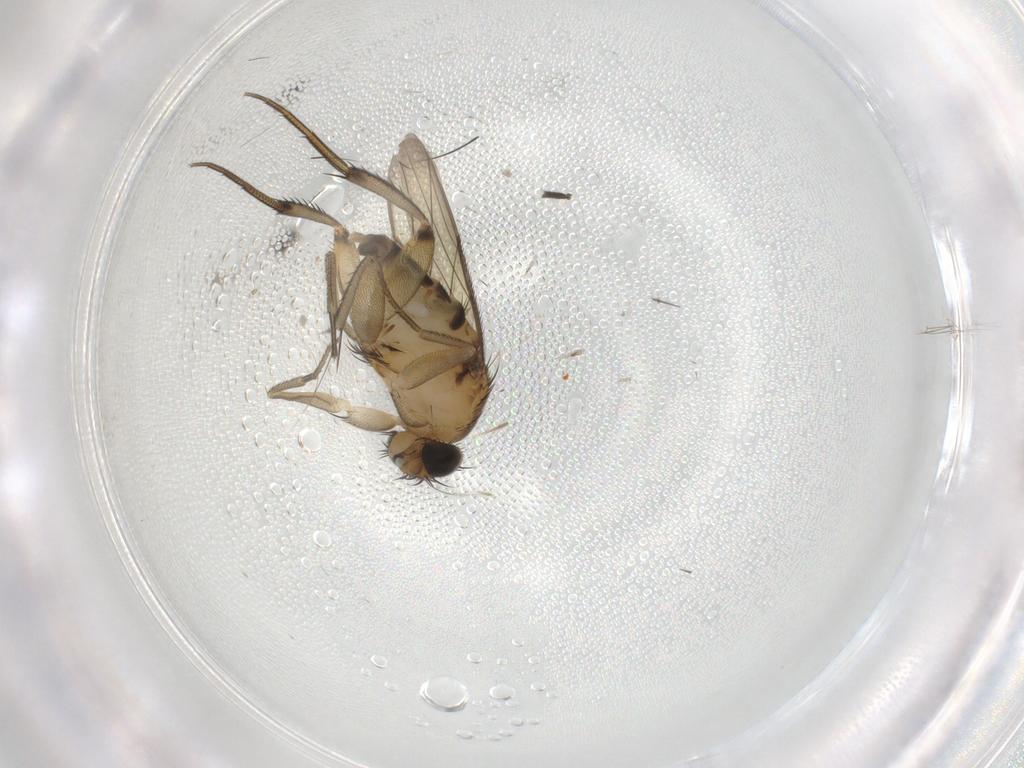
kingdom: Animalia
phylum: Arthropoda
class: Insecta
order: Diptera
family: Phoridae
